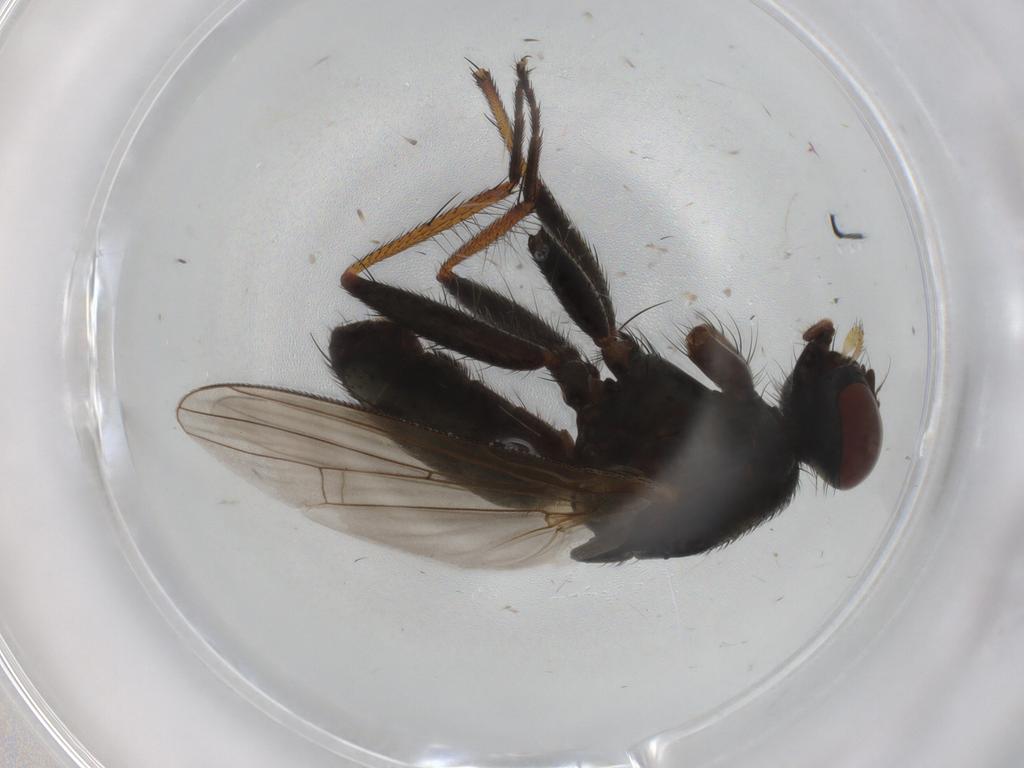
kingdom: Animalia
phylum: Arthropoda
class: Insecta
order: Diptera
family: Muscidae
